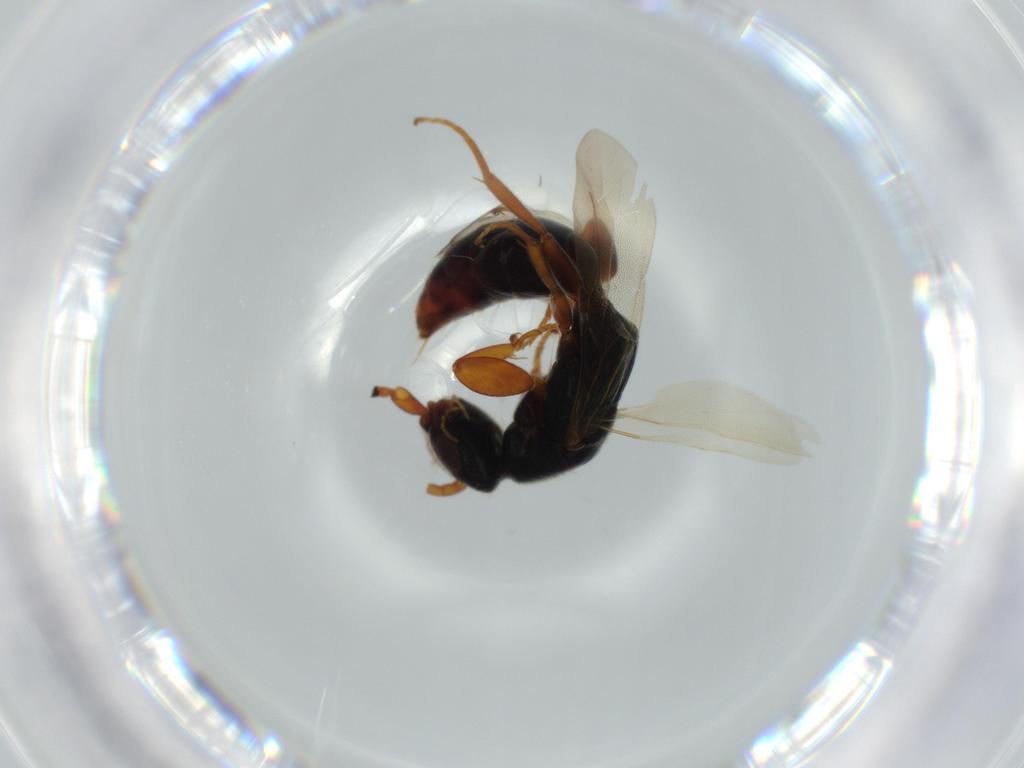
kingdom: Animalia
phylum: Arthropoda
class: Insecta
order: Hymenoptera
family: Bethylidae
